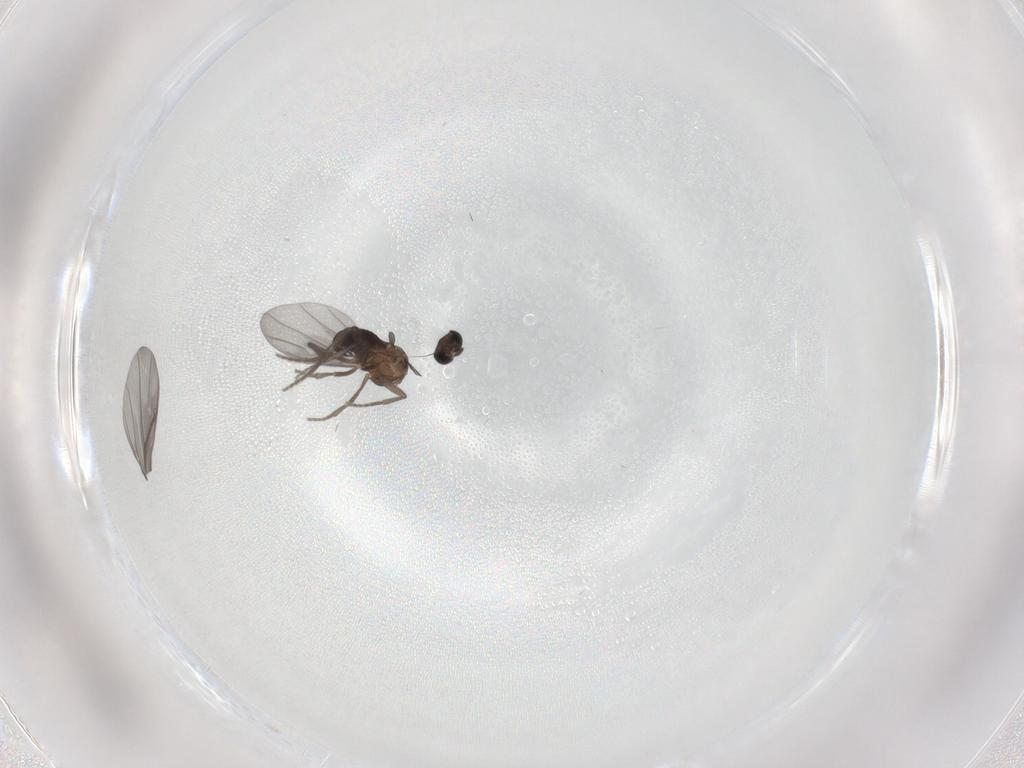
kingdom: Animalia
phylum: Arthropoda
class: Insecta
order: Diptera
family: Phoridae
